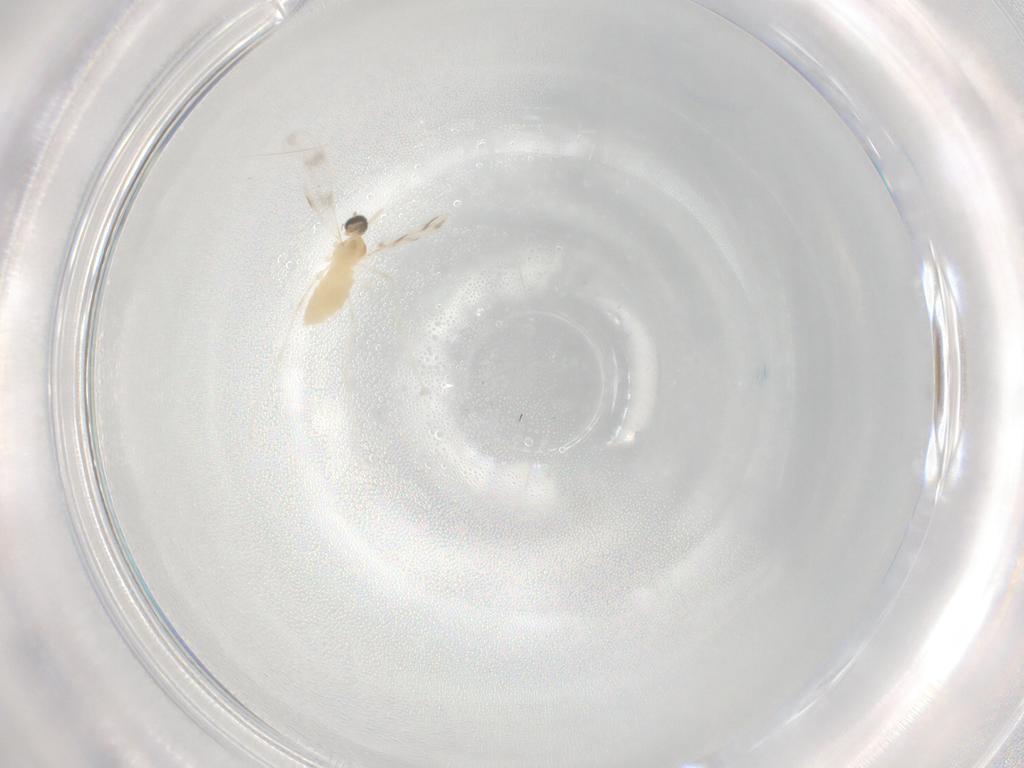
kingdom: Animalia
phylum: Arthropoda
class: Insecta
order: Diptera
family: Cecidomyiidae
